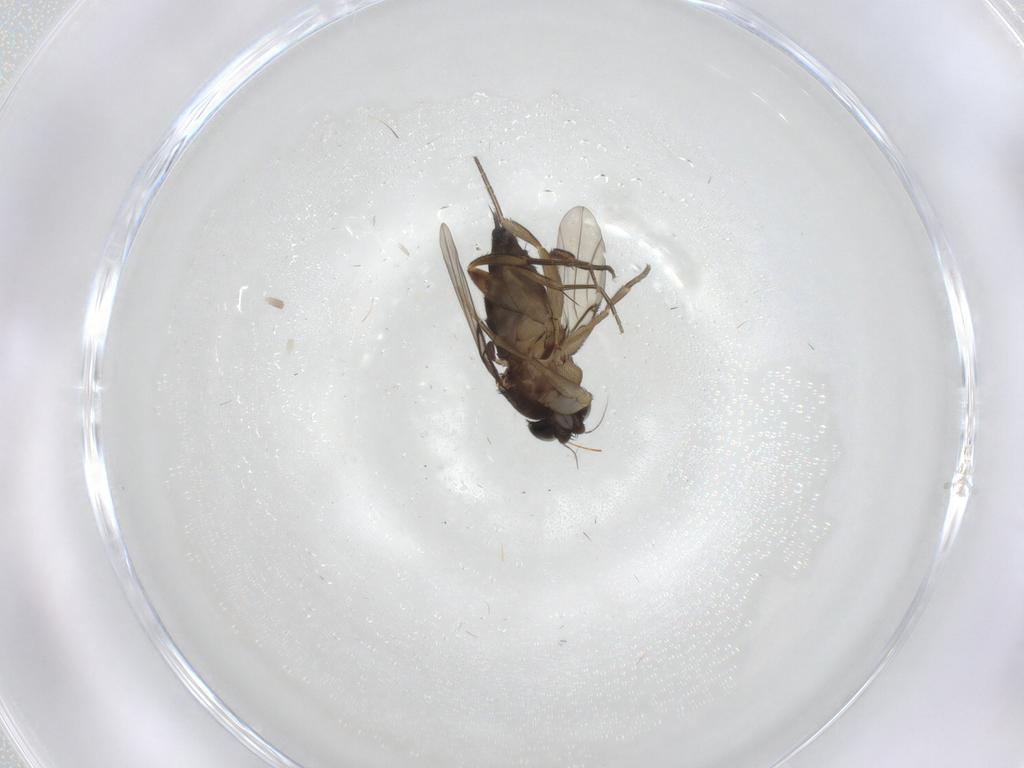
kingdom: Animalia
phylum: Arthropoda
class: Insecta
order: Diptera
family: Phoridae
